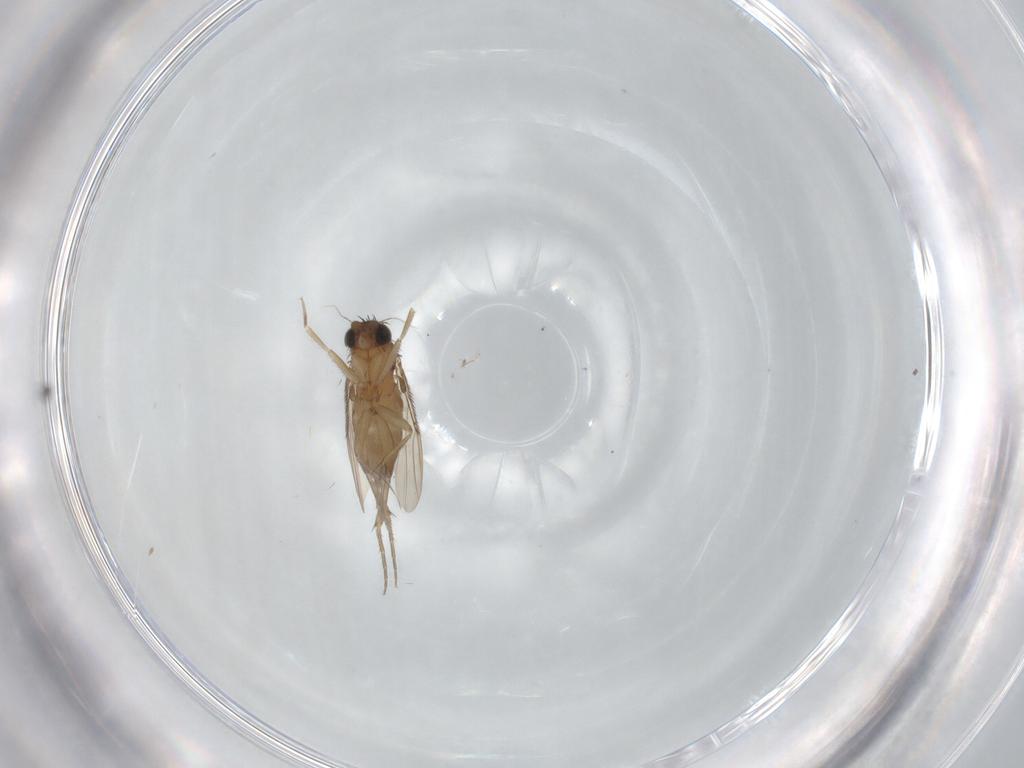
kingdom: Animalia
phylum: Arthropoda
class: Insecta
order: Diptera
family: Phoridae
